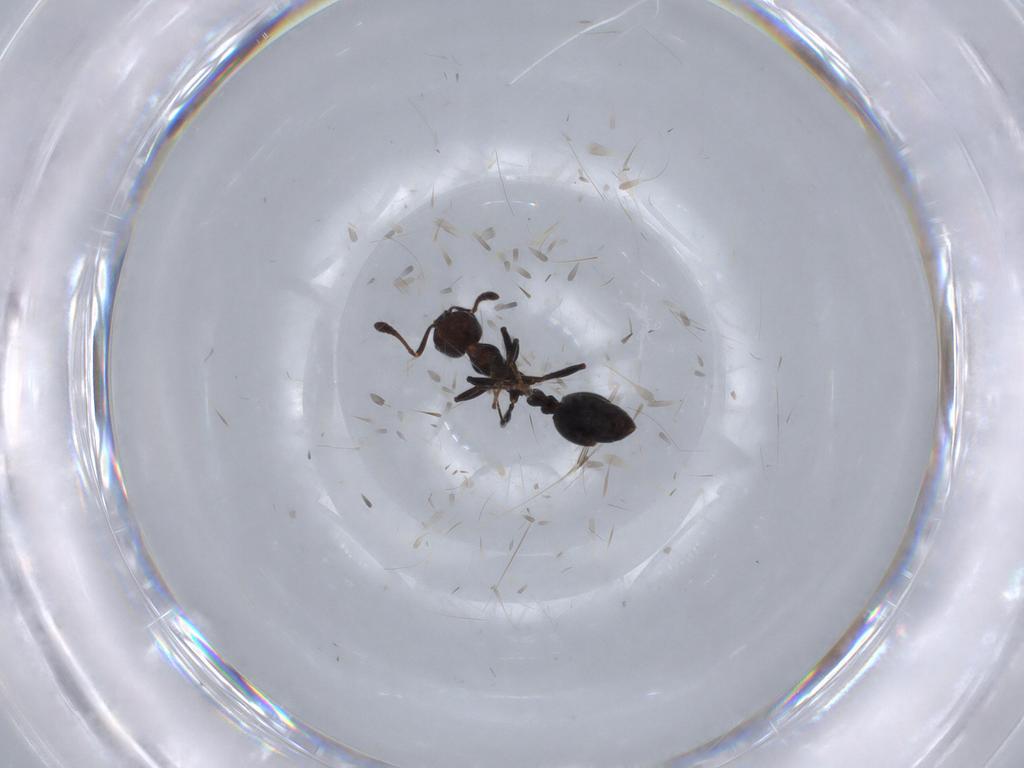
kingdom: Animalia
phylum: Arthropoda
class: Insecta
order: Hymenoptera
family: Formicidae
